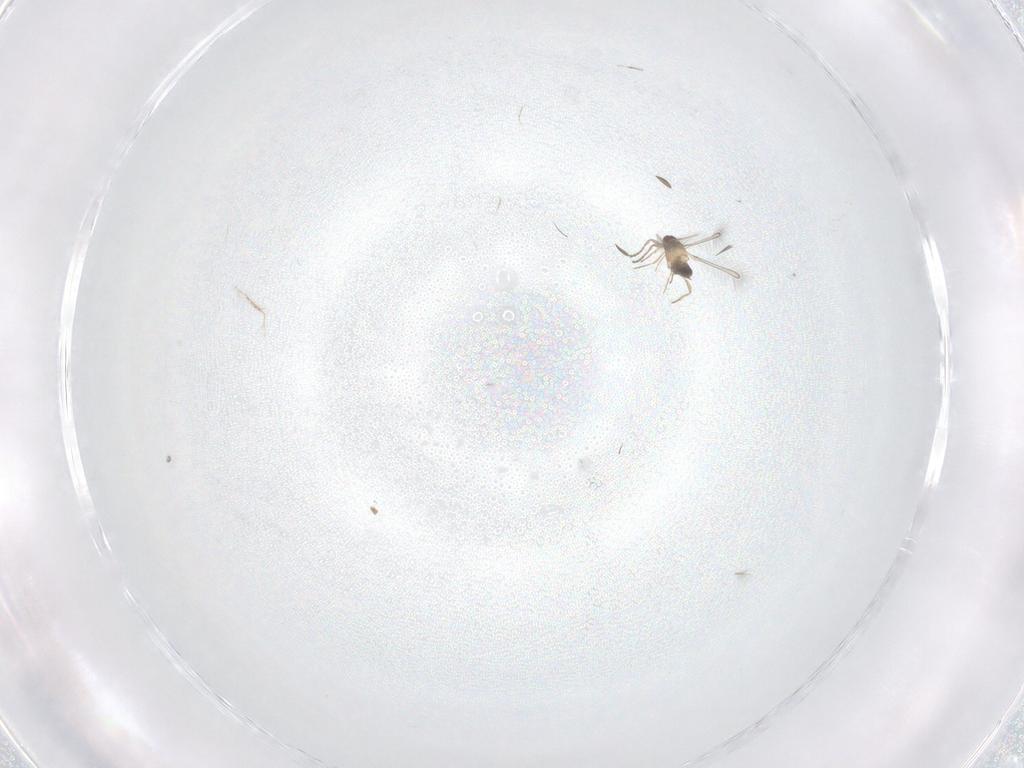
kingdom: Animalia
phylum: Arthropoda
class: Insecta
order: Hymenoptera
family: Mymaridae
